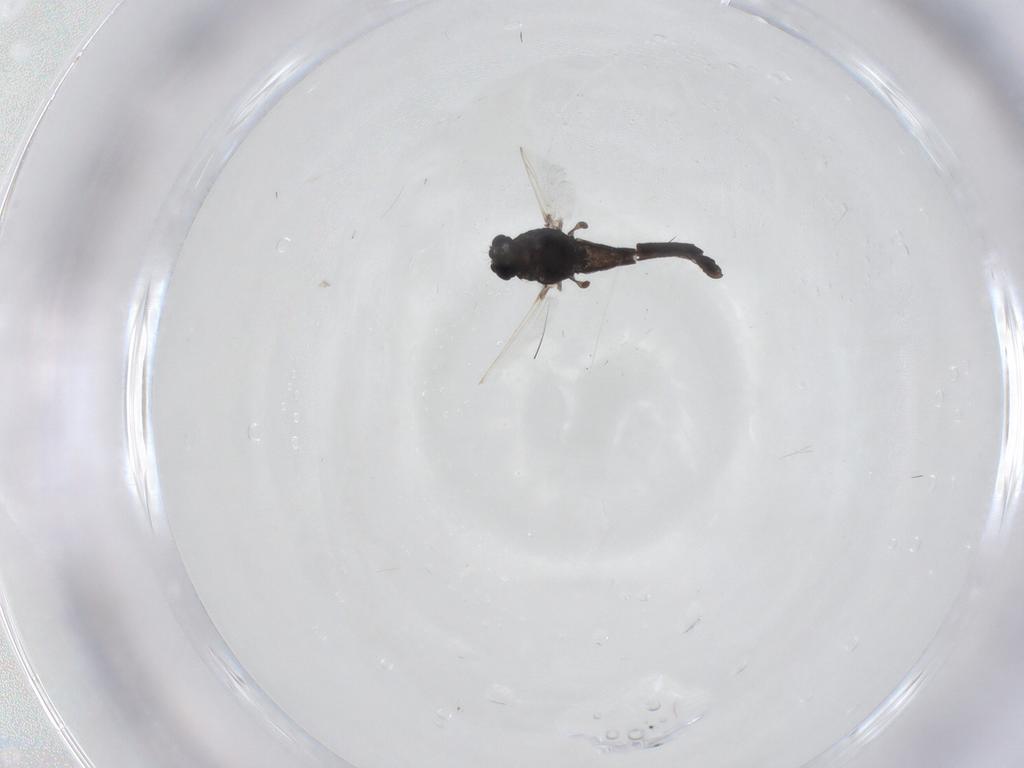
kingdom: Animalia
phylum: Arthropoda
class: Insecta
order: Diptera
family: Chironomidae
